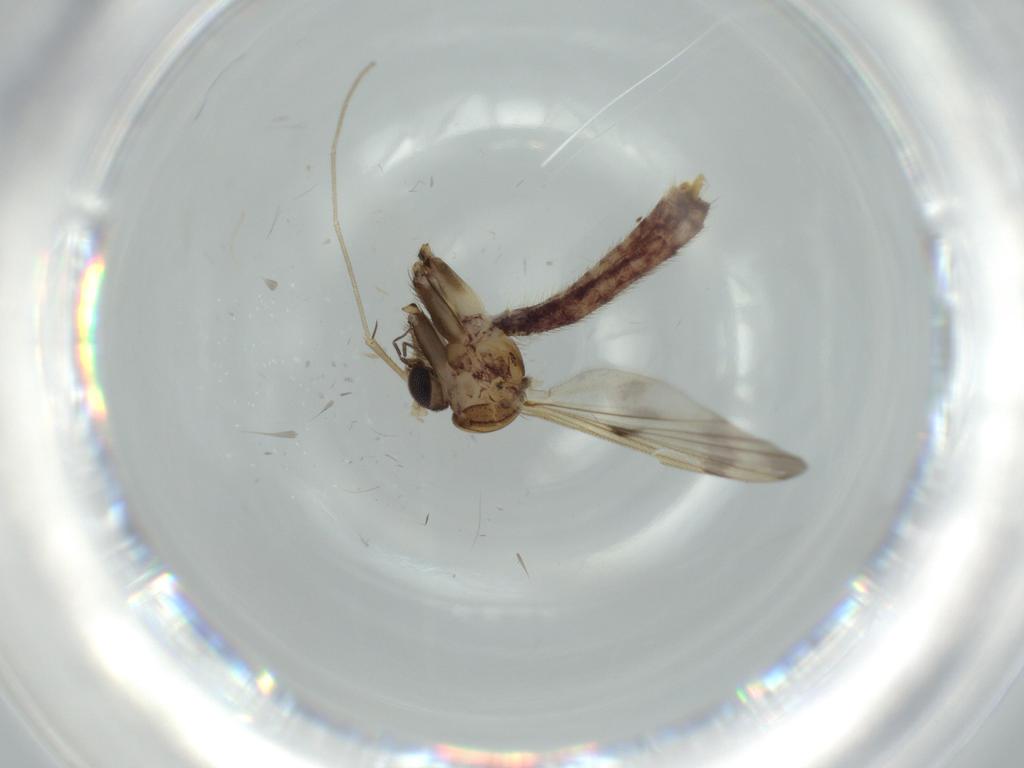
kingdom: Animalia
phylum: Arthropoda
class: Insecta
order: Diptera
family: Mycetophilidae
